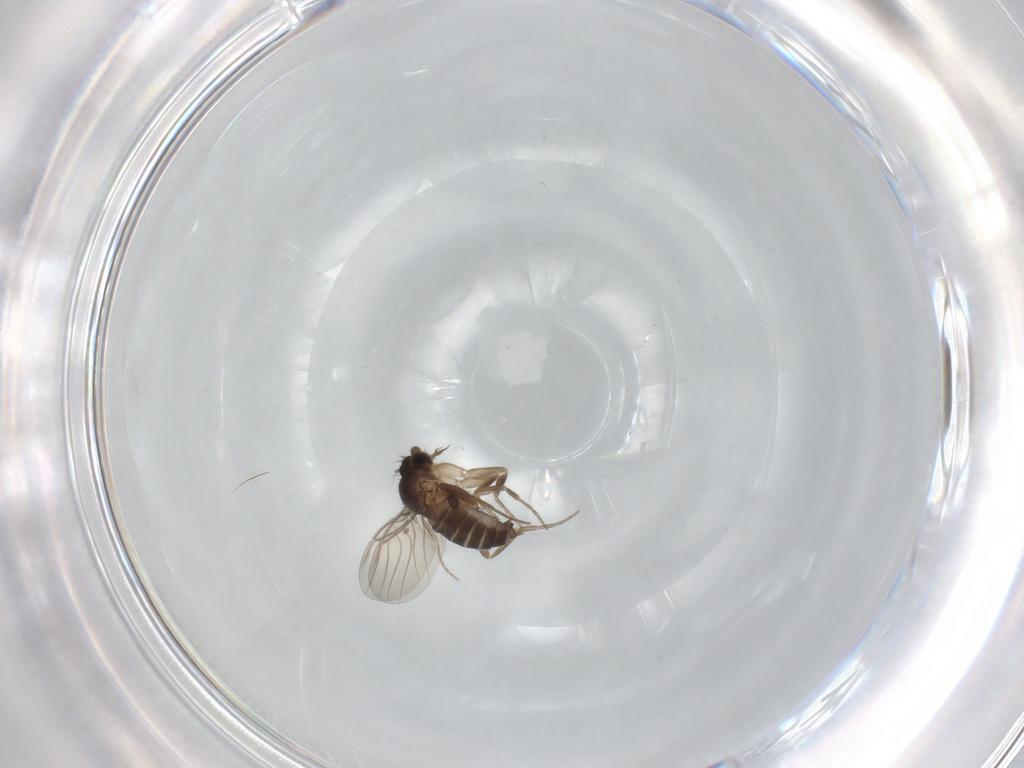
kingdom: Animalia
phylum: Arthropoda
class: Insecta
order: Diptera
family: Phoridae
